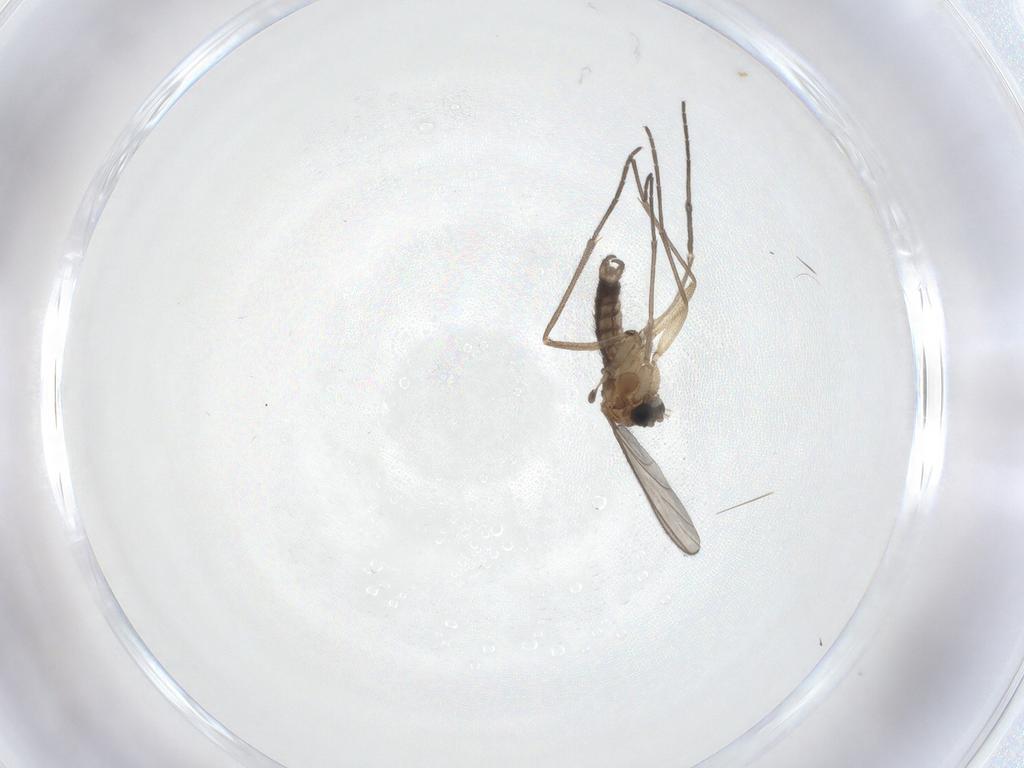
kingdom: Animalia
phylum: Arthropoda
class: Insecta
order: Diptera
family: Sciaridae
